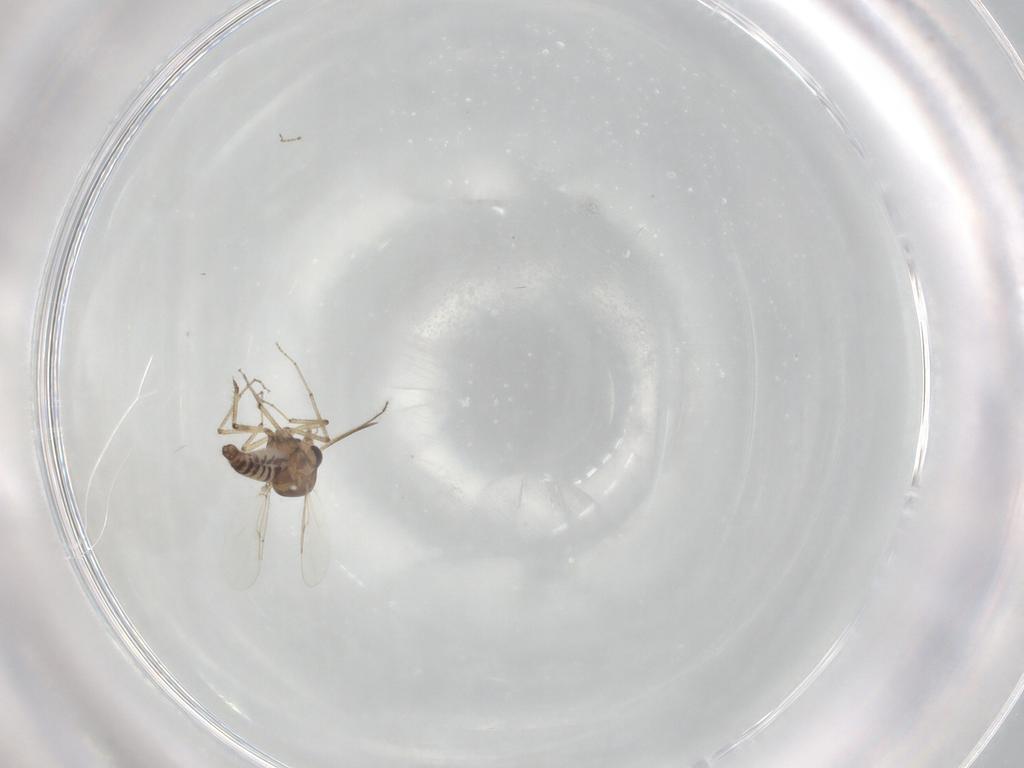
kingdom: Animalia
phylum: Arthropoda
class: Insecta
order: Diptera
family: Ceratopogonidae
